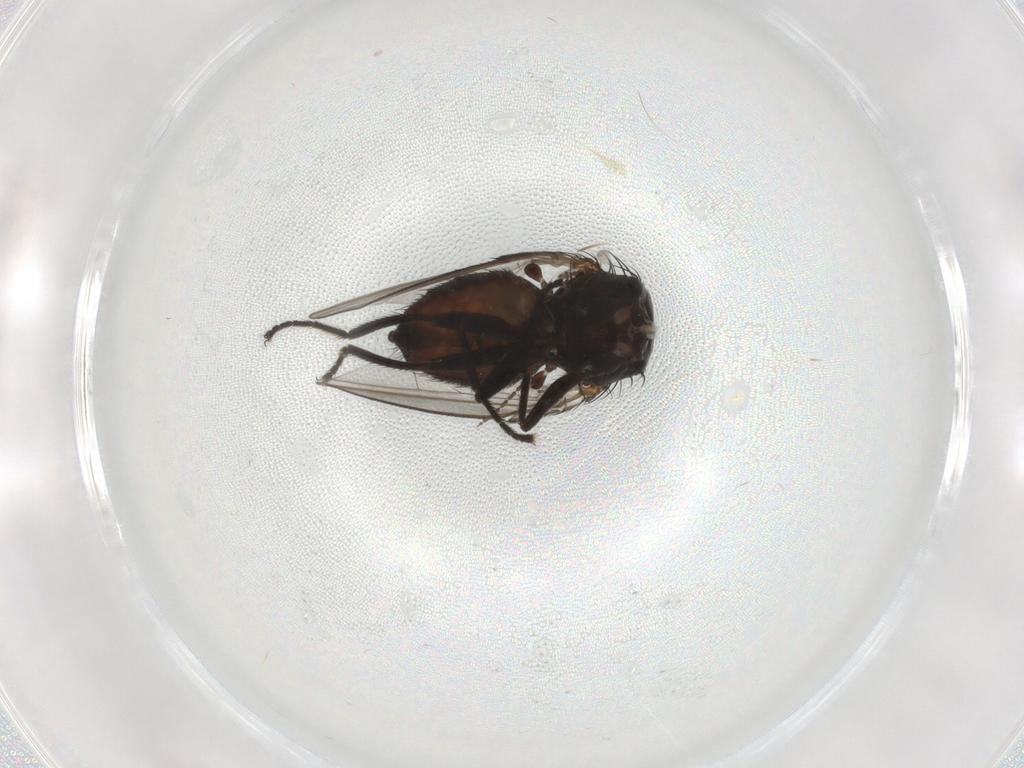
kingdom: Animalia
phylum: Arthropoda
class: Insecta
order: Diptera
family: Milichiidae
